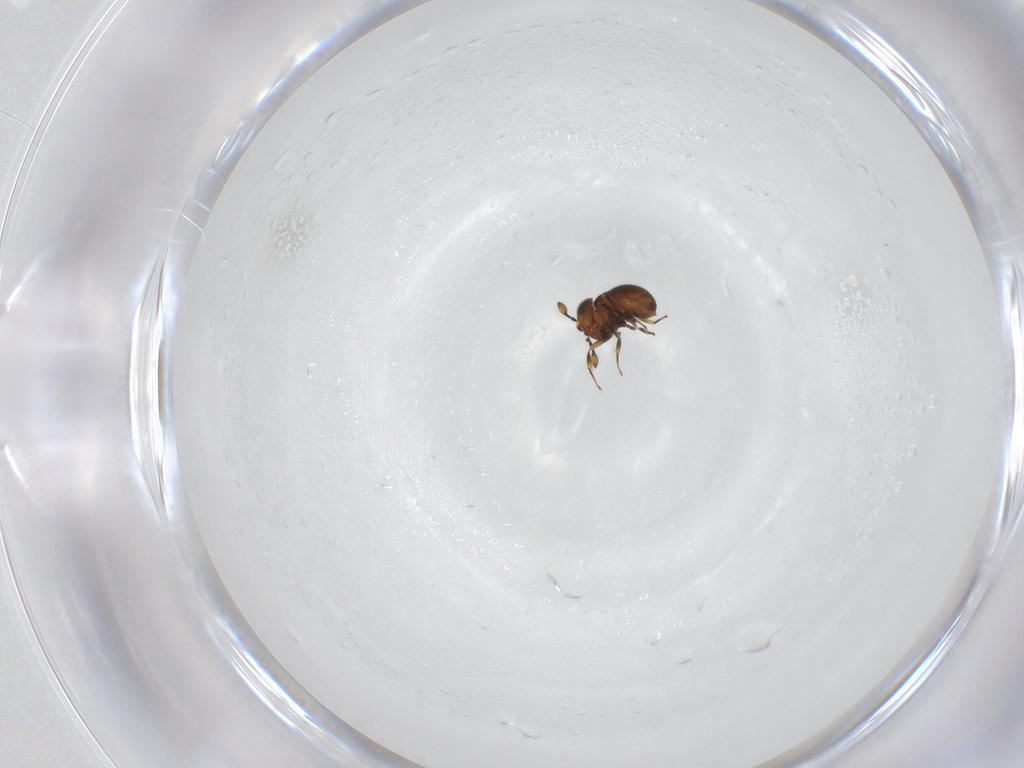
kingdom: Animalia
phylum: Arthropoda
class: Insecta
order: Hymenoptera
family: Scelionidae
